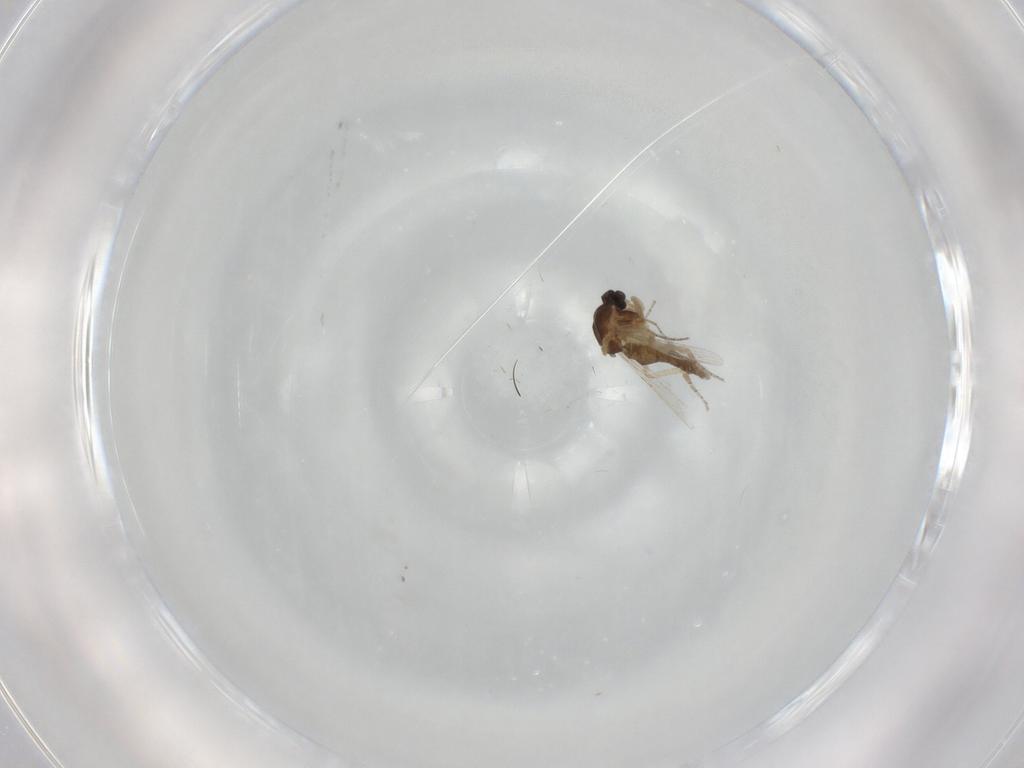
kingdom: Animalia
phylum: Arthropoda
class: Insecta
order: Diptera
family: Ceratopogonidae
